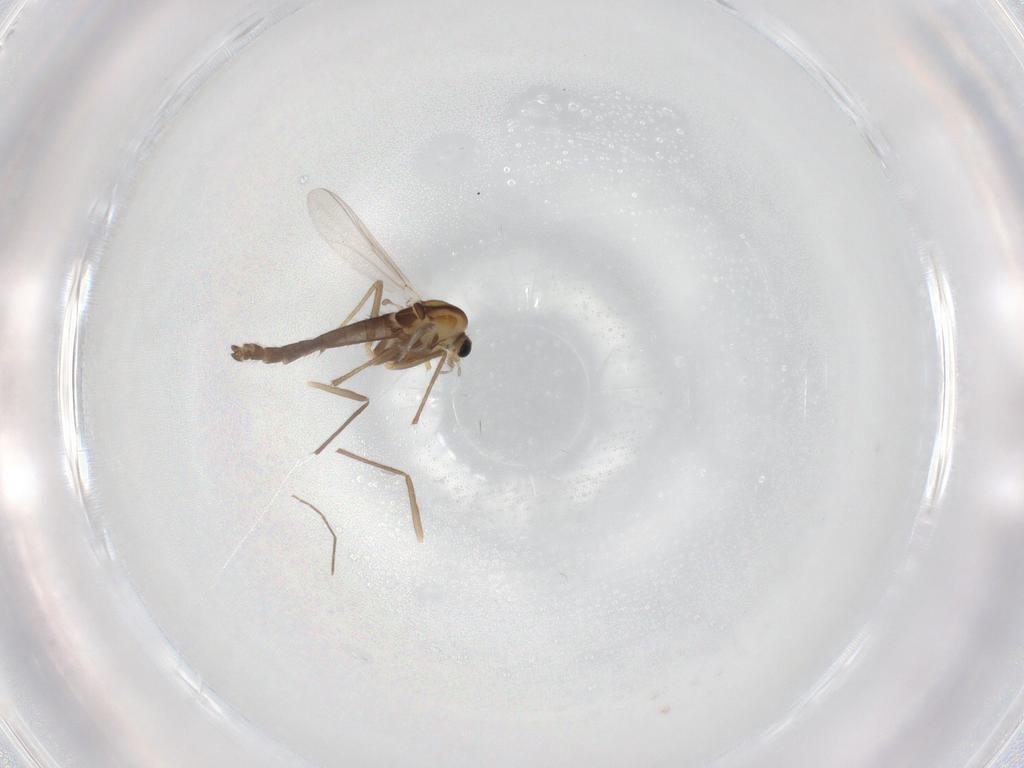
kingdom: Animalia
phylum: Arthropoda
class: Insecta
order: Diptera
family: Chironomidae
